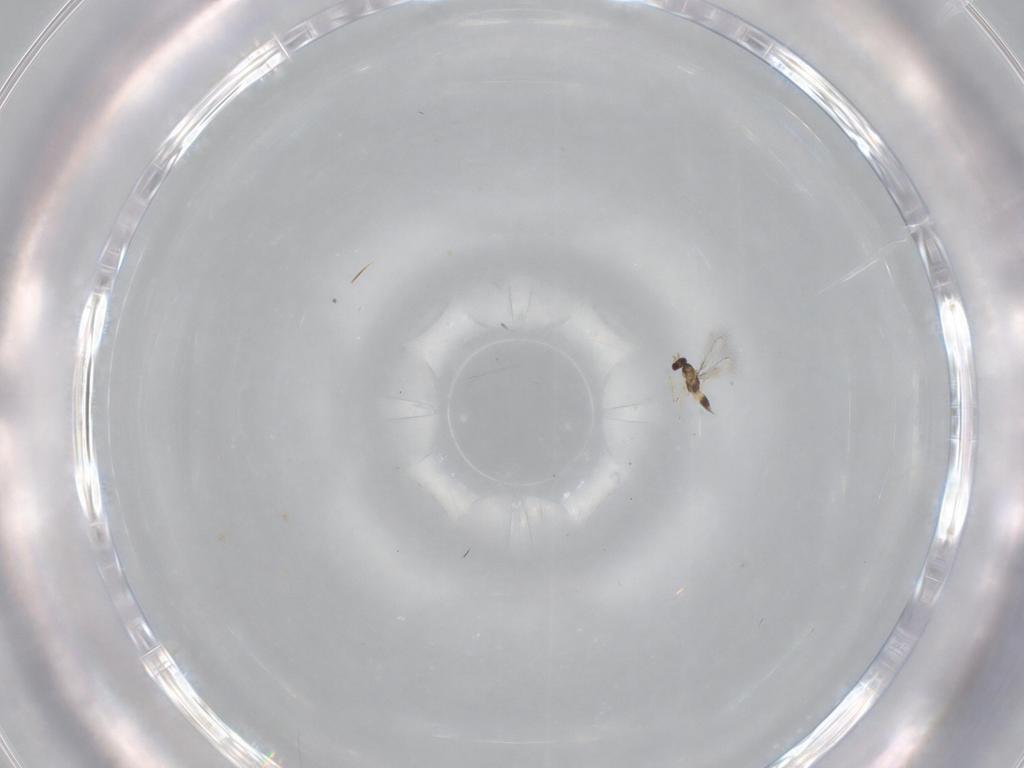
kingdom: Animalia
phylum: Arthropoda
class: Insecta
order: Hymenoptera
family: Mymaridae
